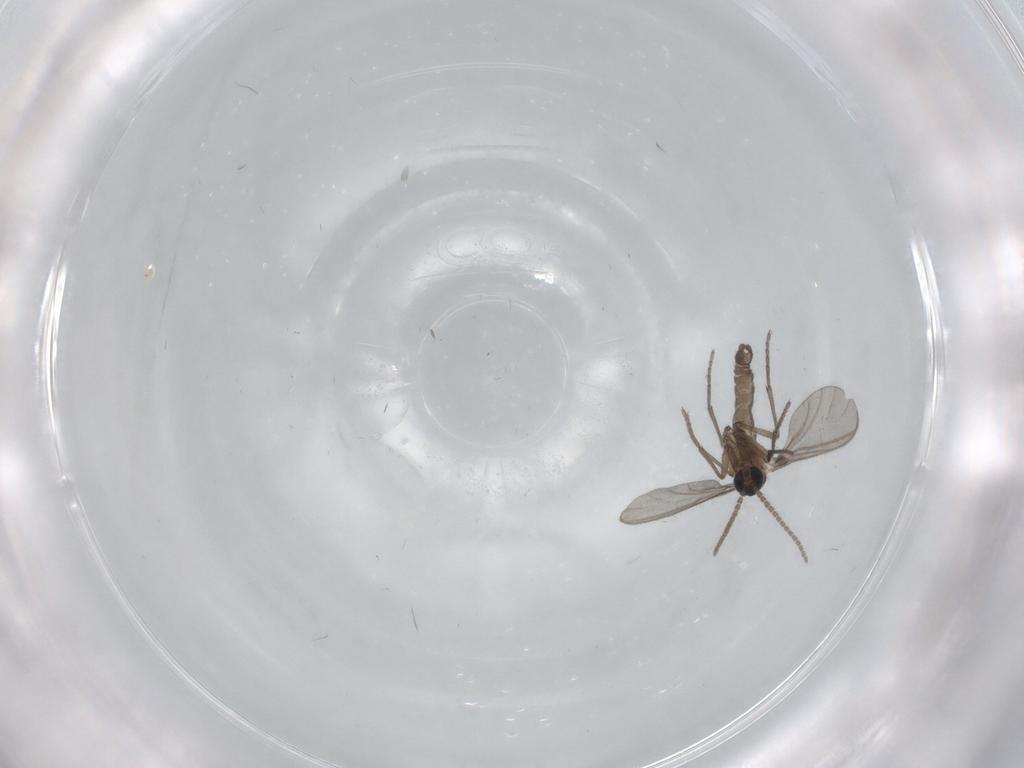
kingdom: Animalia
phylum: Arthropoda
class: Insecta
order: Diptera
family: Sciaridae
